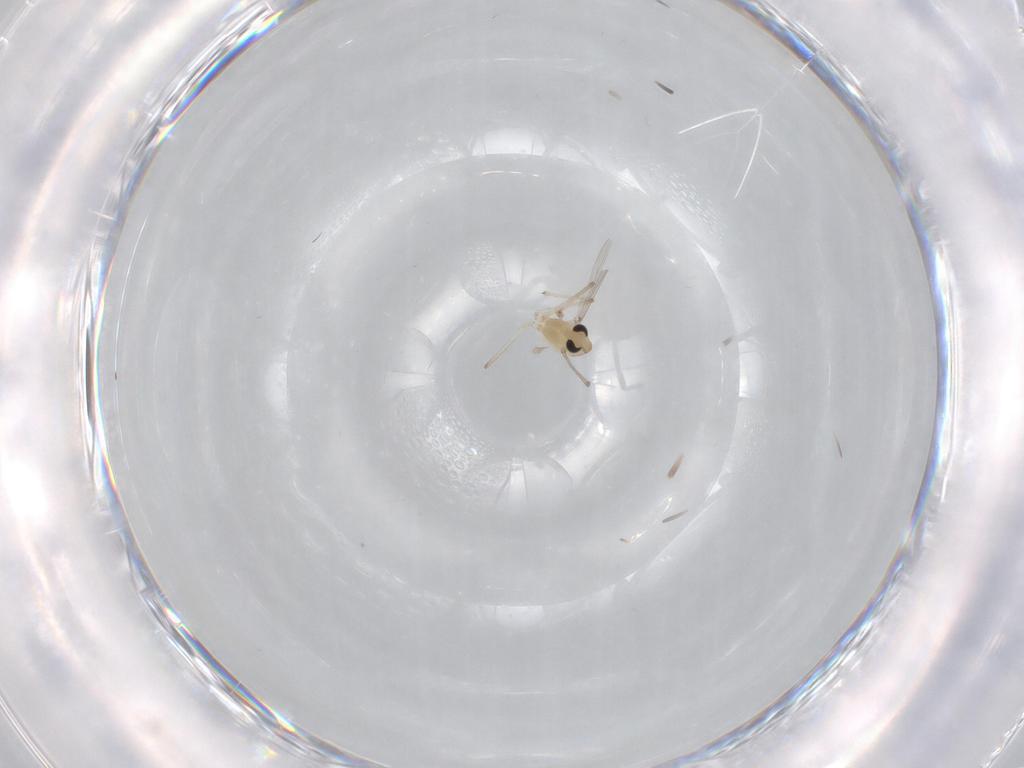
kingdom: Animalia
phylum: Arthropoda
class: Insecta
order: Diptera
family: Chironomidae
